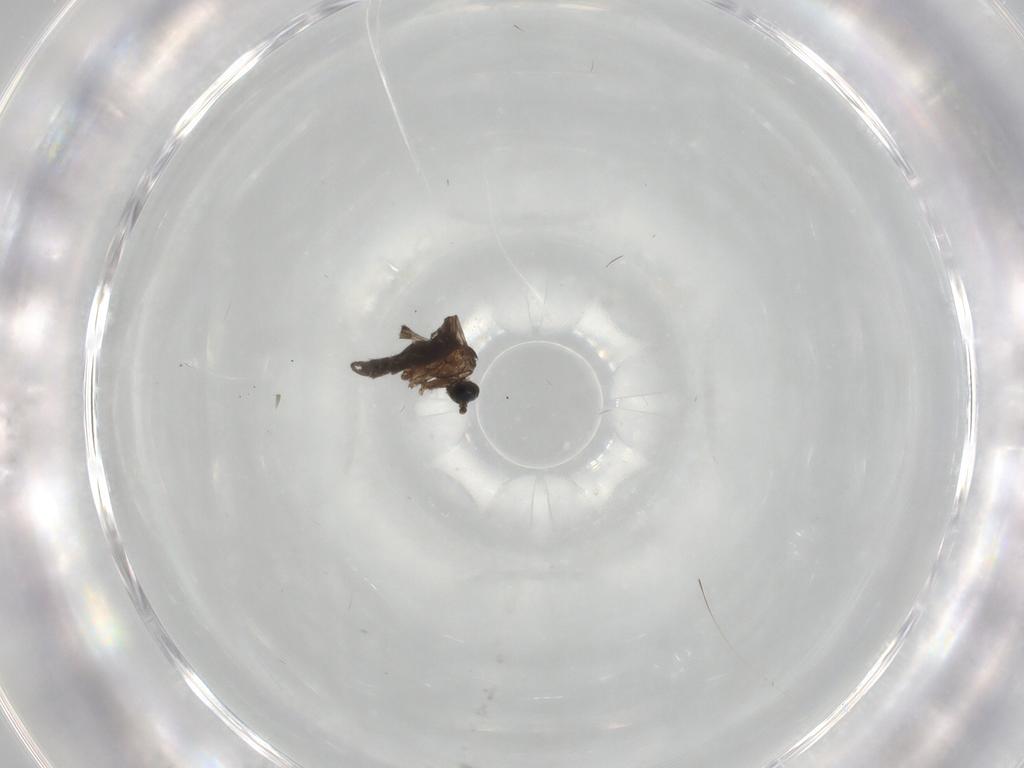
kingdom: Animalia
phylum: Arthropoda
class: Insecta
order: Diptera
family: Sciaridae
